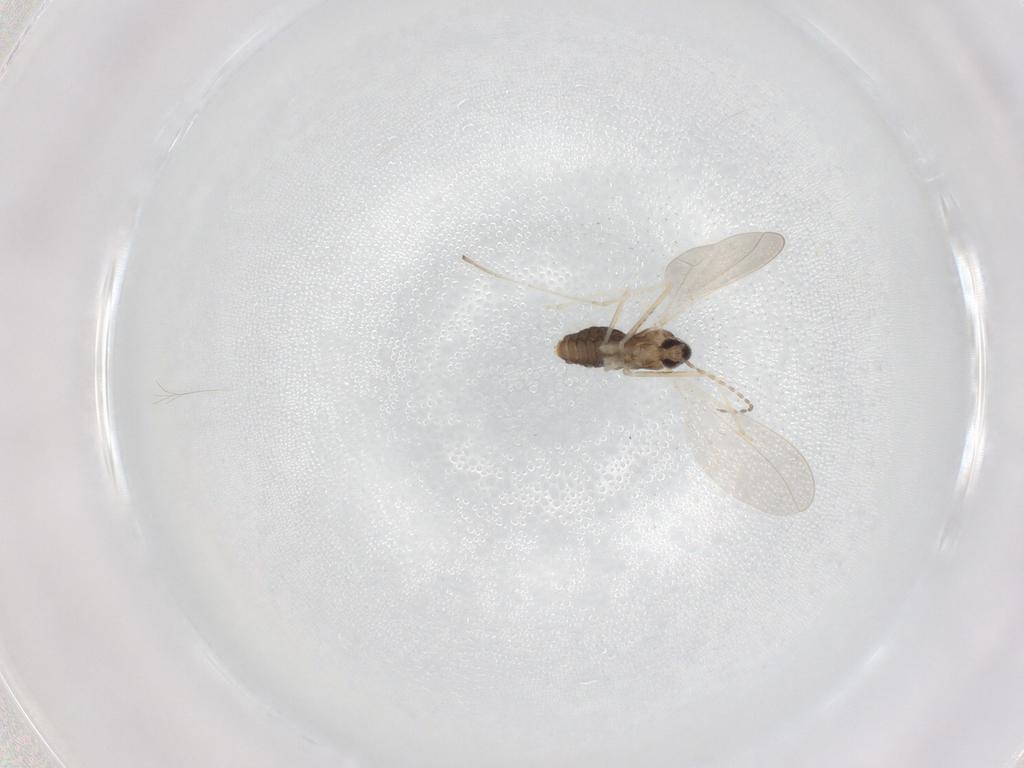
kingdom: Animalia
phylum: Arthropoda
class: Insecta
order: Diptera
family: Cecidomyiidae
